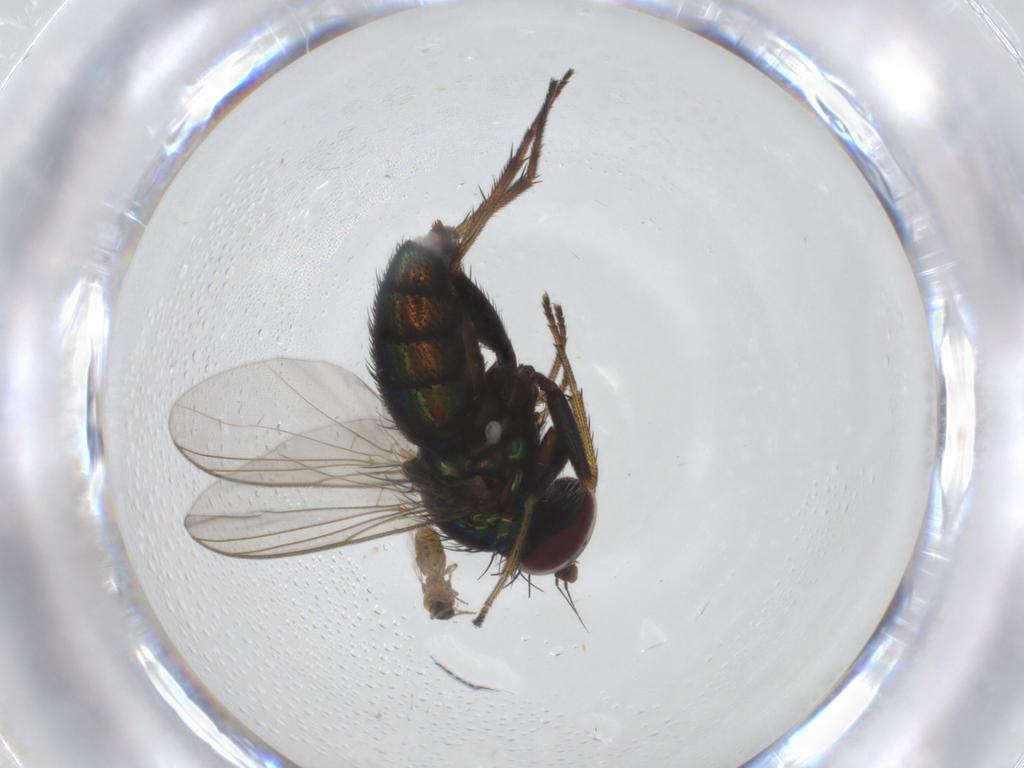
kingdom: Animalia
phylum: Arthropoda
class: Insecta
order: Diptera
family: Dolichopodidae
